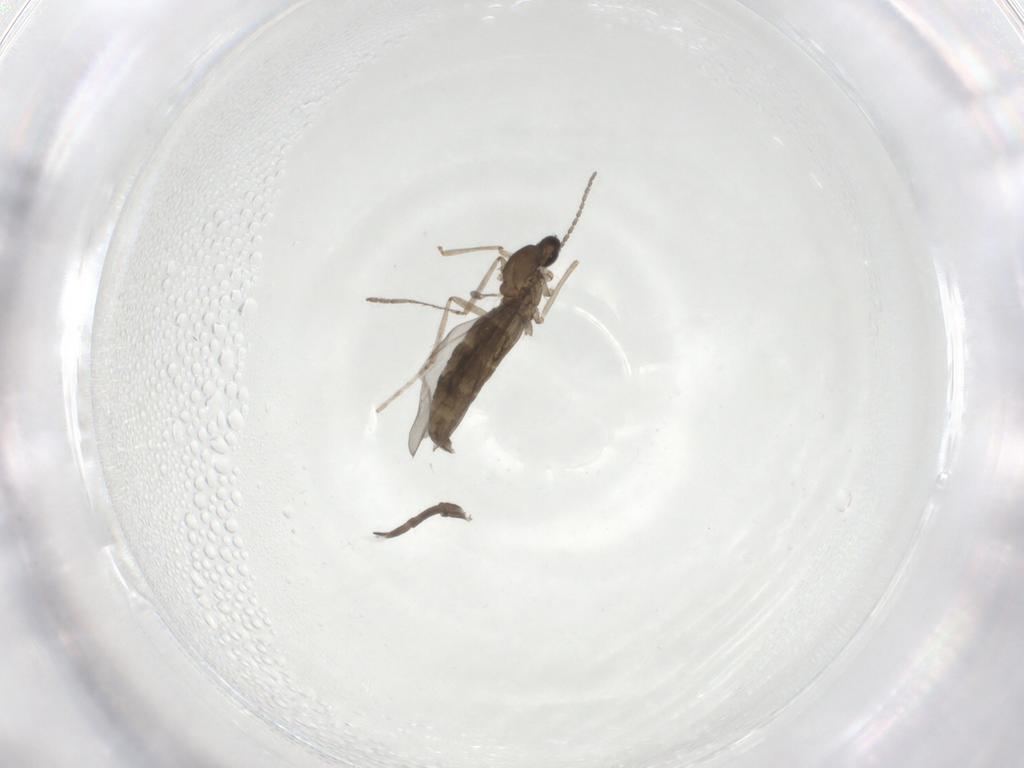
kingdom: Animalia
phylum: Arthropoda
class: Insecta
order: Diptera
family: Cecidomyiidae
